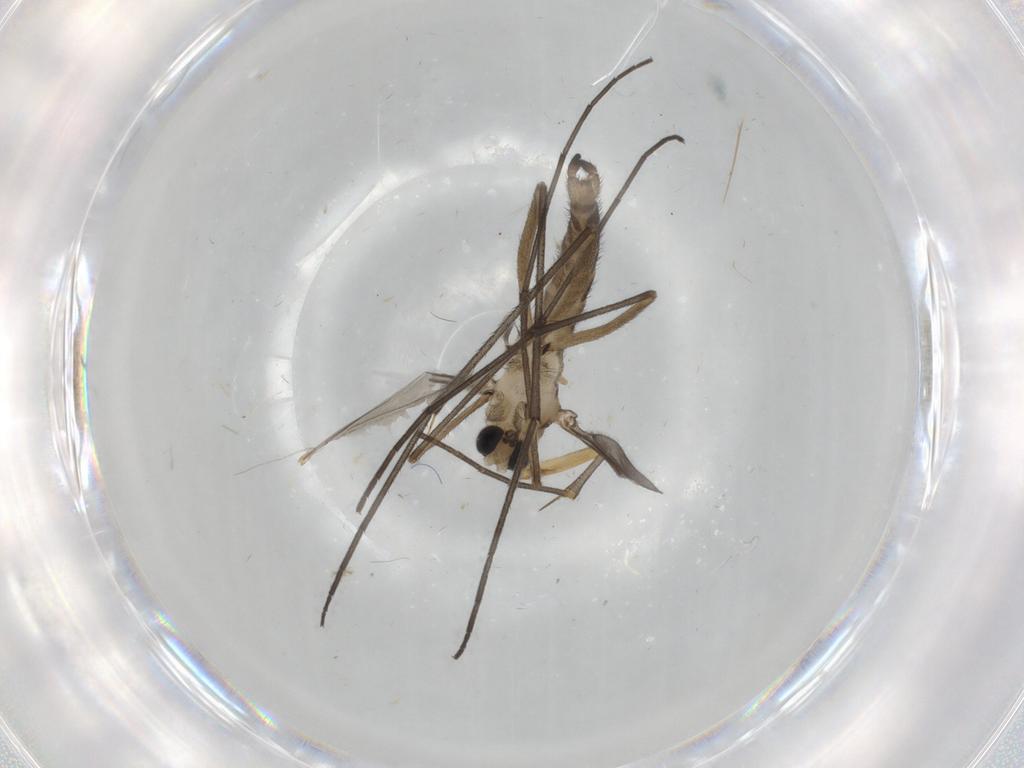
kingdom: Animalia
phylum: Arthropoda
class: Insecta
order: Diptera
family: Sciaridae
